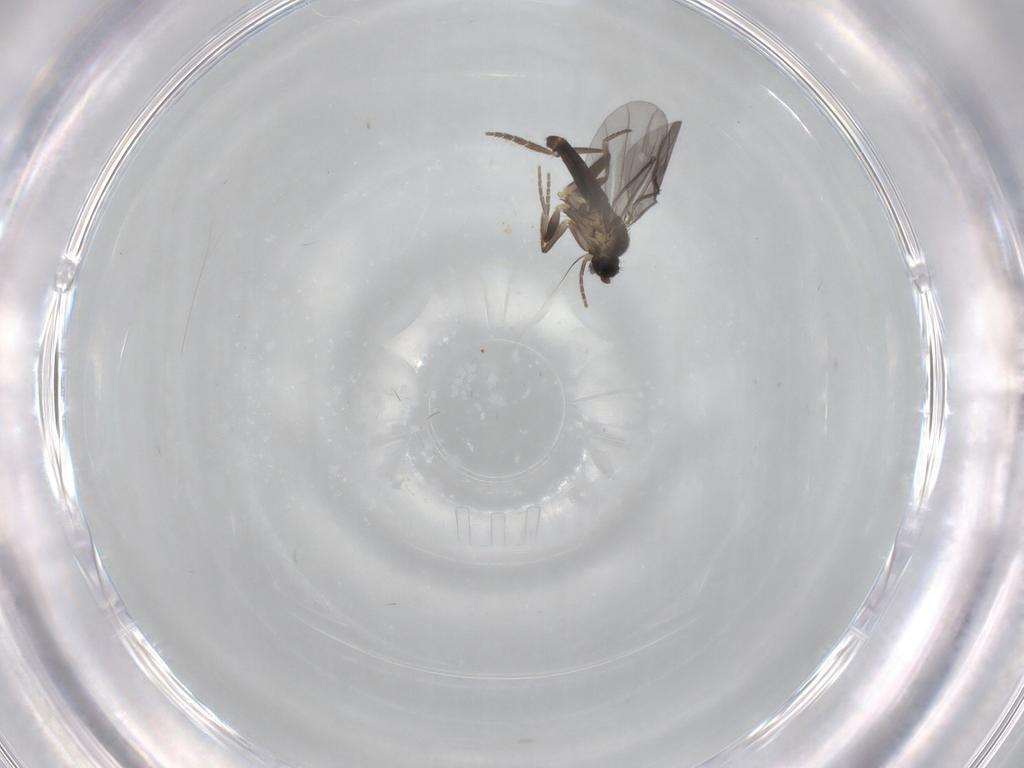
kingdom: Animalia
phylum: Arthropoda
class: Insecta
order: Diptera
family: Phoridae
